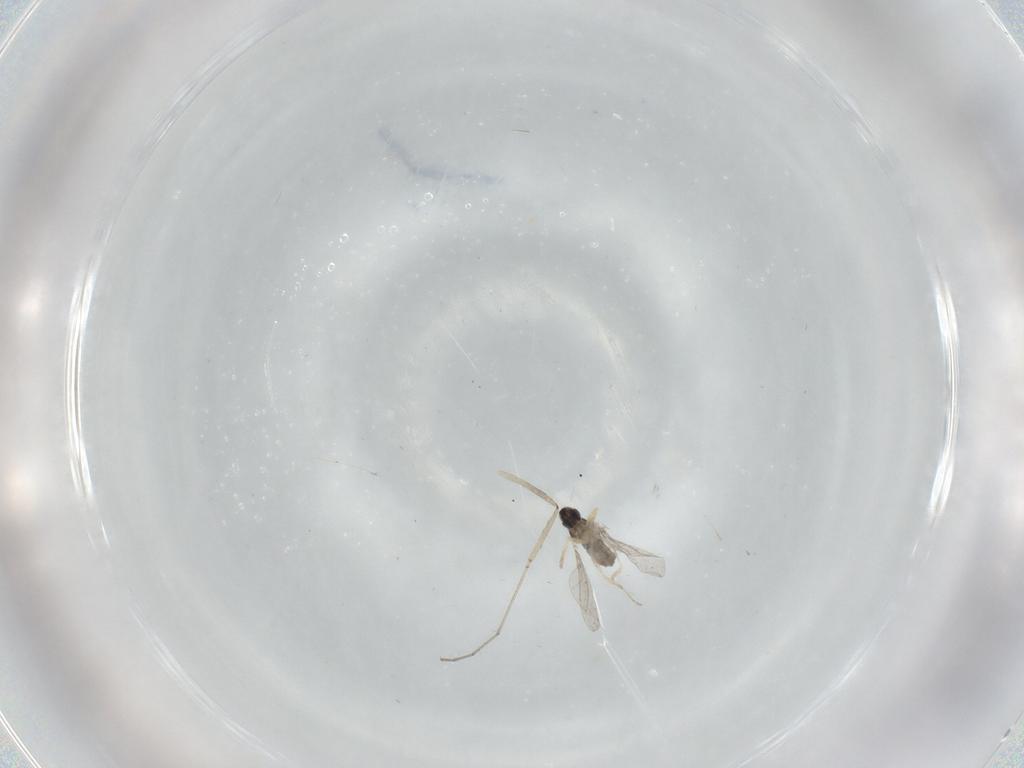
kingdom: Animalia
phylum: Arthropoda
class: Insecta
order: Diptera
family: Cecidomyiidae
